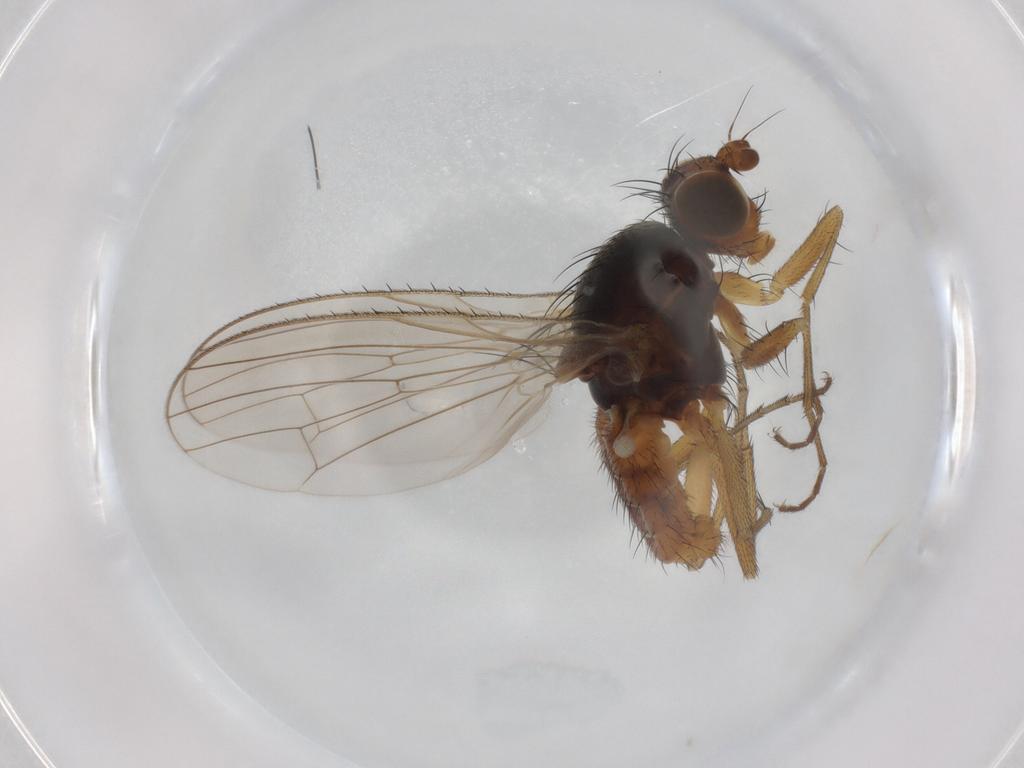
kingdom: Animalia
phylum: Arthropoda
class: Insecta
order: Diptera
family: Heleomyzidae
